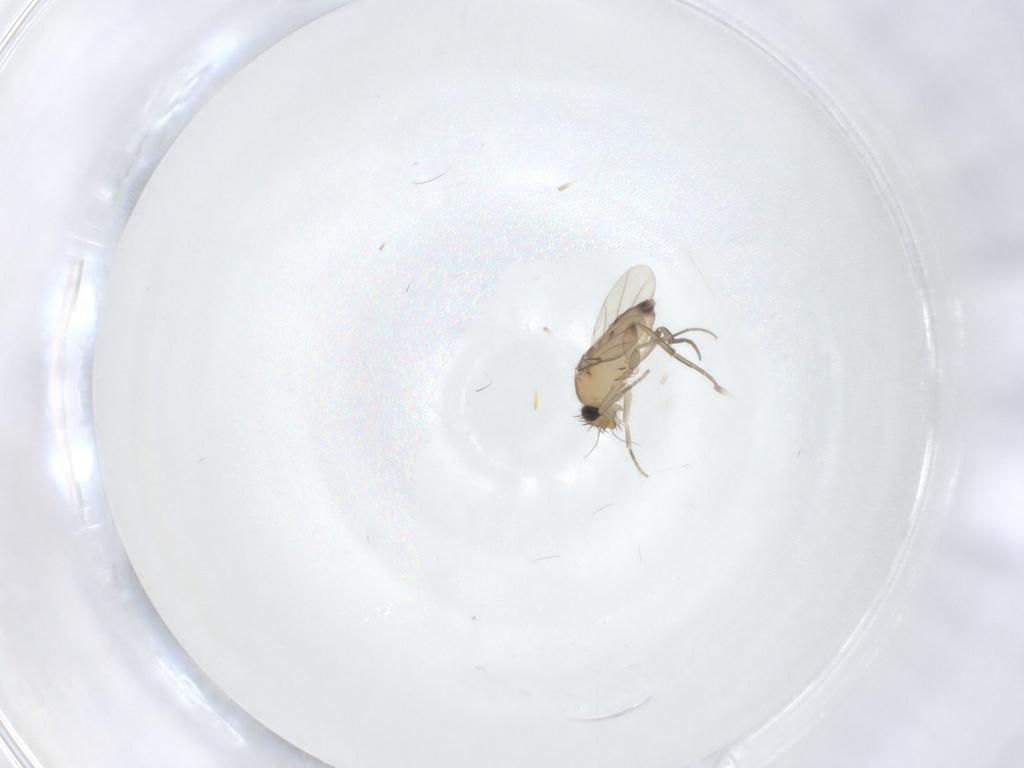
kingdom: Animalia
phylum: Arthropoda
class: Insecta
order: Diptera
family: Phoridae
